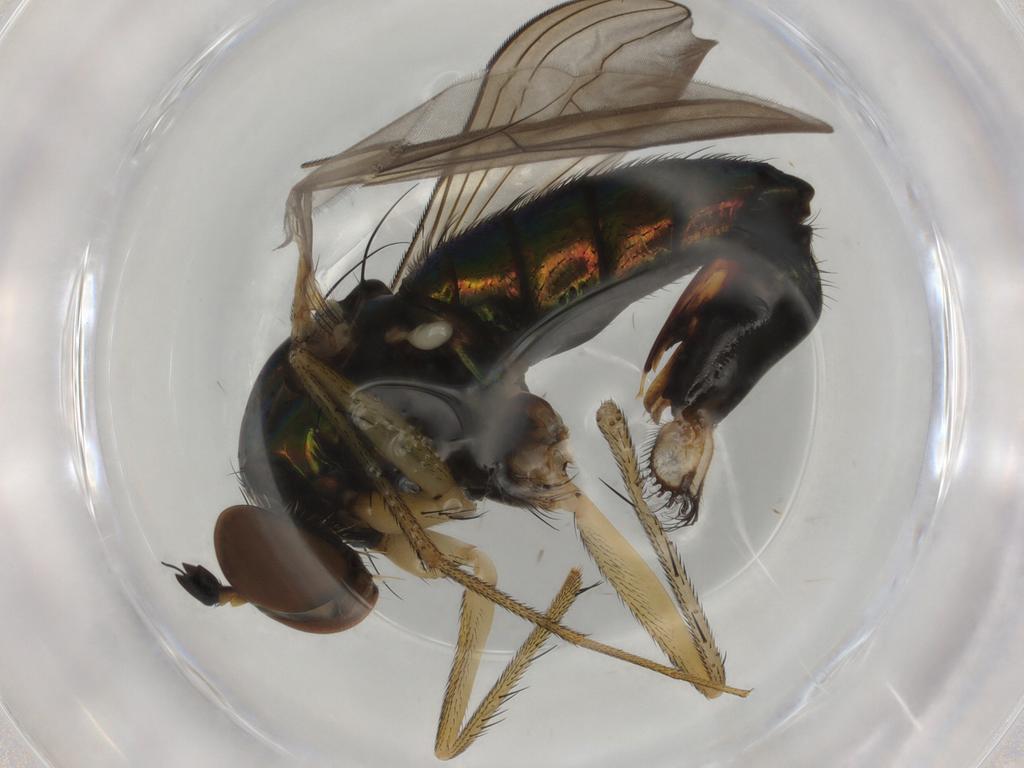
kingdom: Animalia
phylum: Arthropoda
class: Insecta
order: Diptera
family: Dolichopodidae
